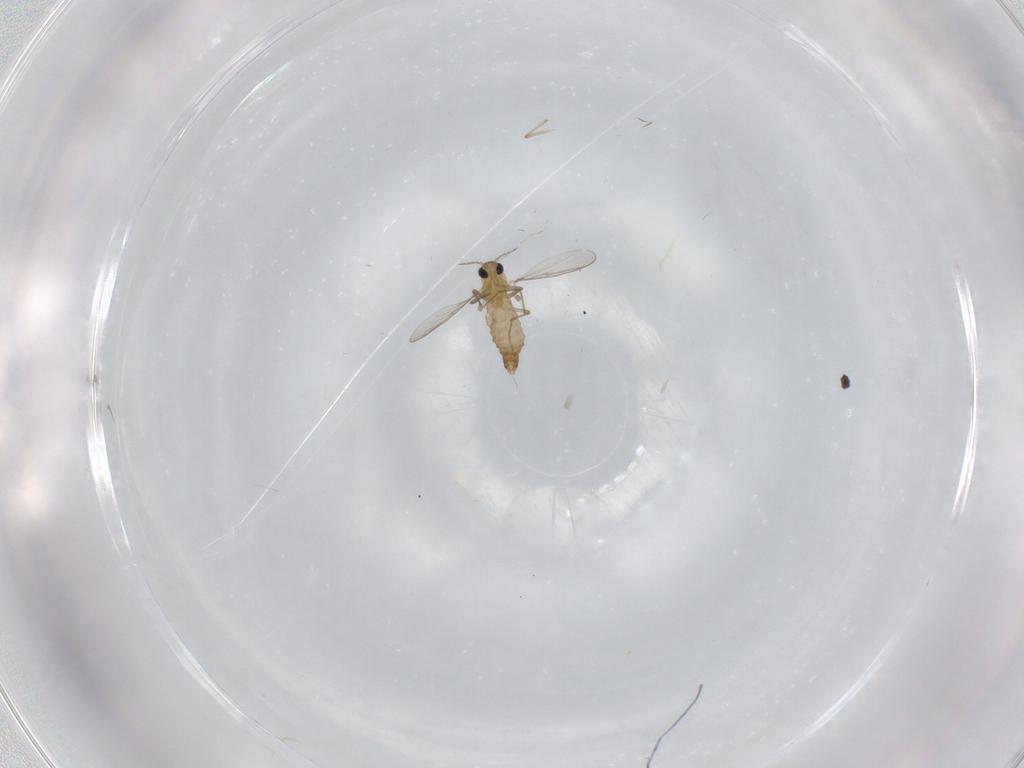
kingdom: Animalia
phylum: Arthropoda
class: Insecta
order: Diptera
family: Chironomidae
